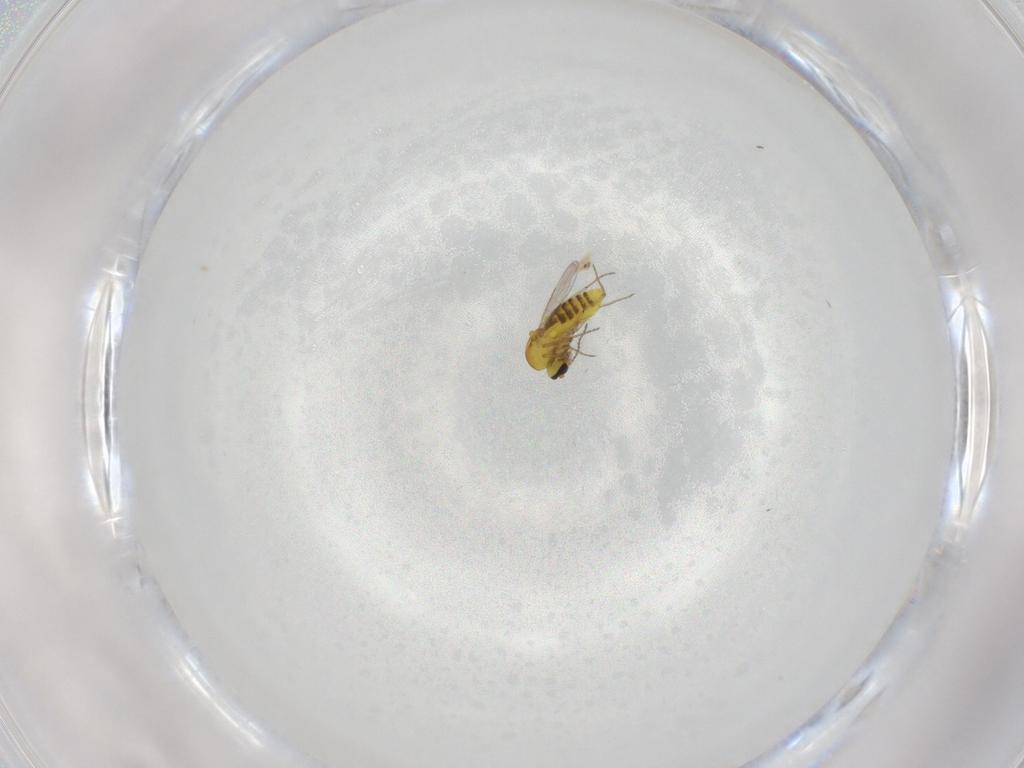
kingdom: Animalia
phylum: Arthropoda
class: Insecta
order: Diptera
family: Ceratopogonidae
